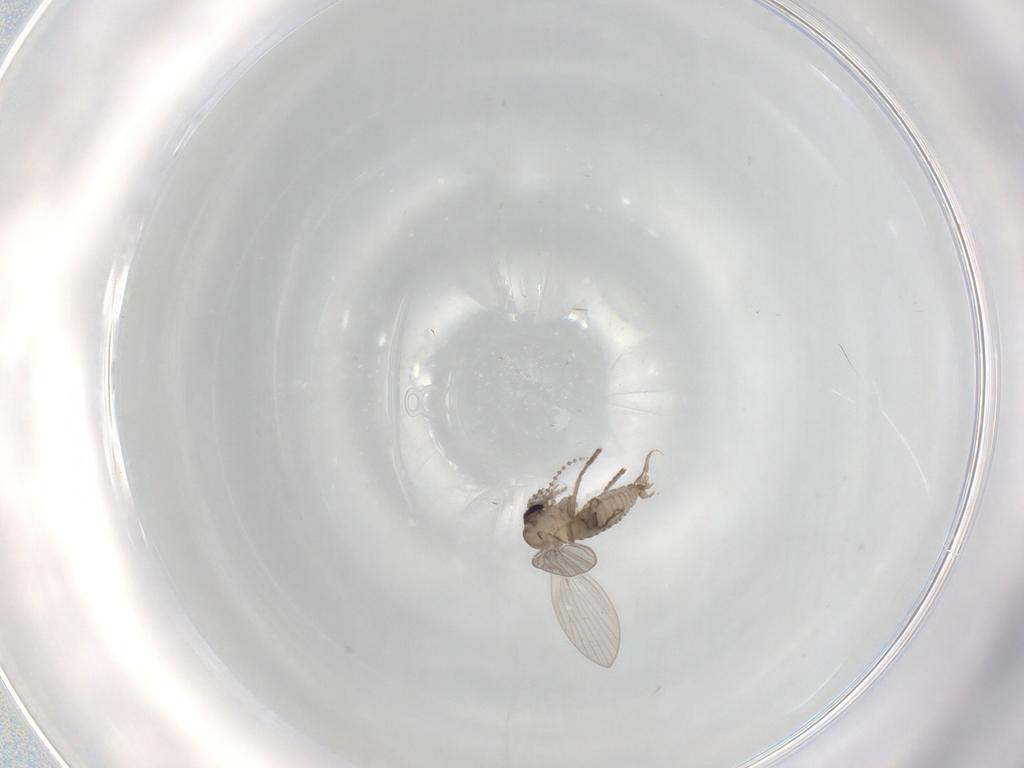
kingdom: Animalia
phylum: Arthropoda
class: Insecta
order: Diptera
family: Psychodidae
